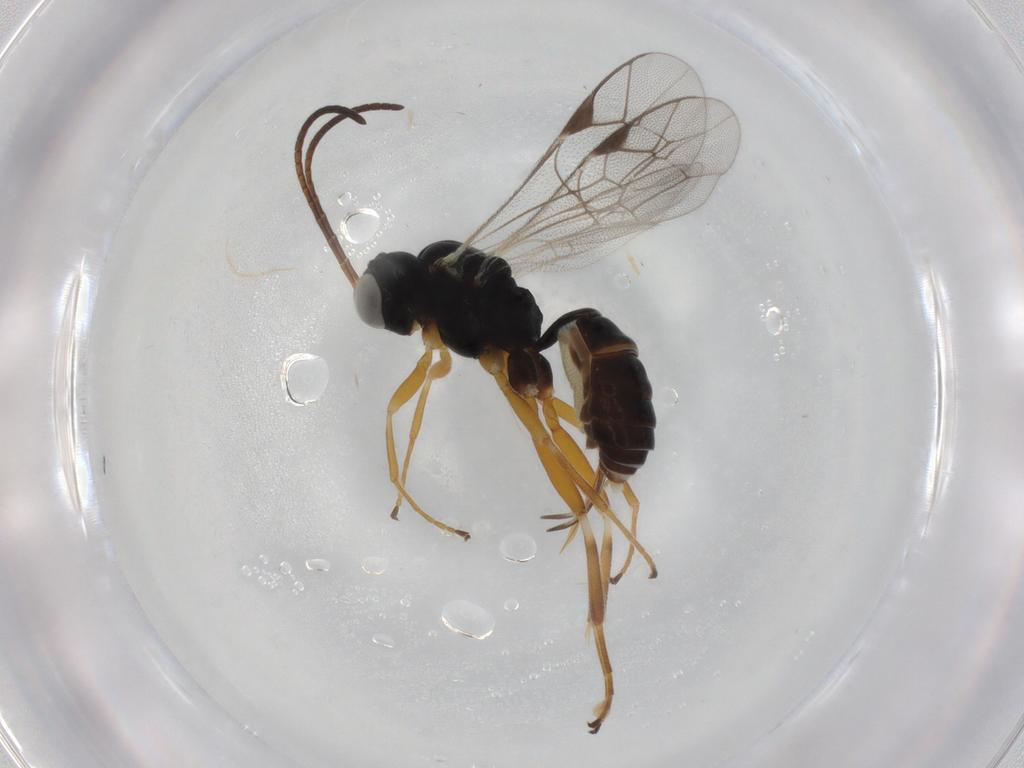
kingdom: Animalia
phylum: Arthropoda
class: Insecta
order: Hymenoptera
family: Ichneumonidae
